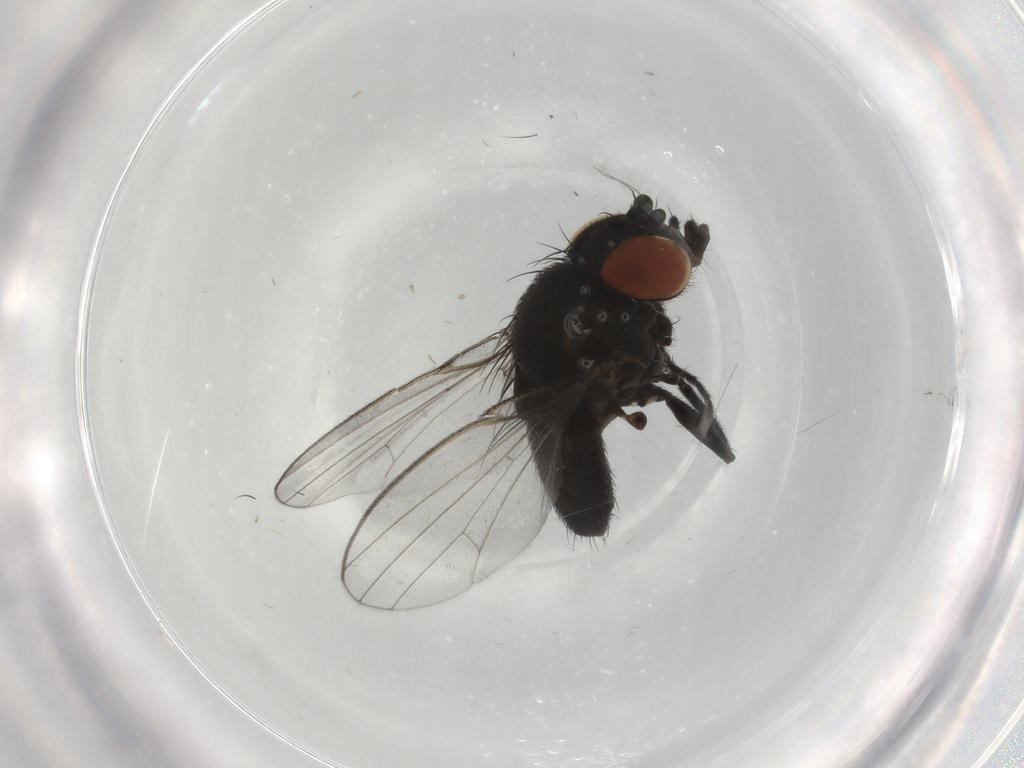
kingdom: Animalia
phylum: Arthropoda
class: Insecta
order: Diptera
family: Milichiidae
